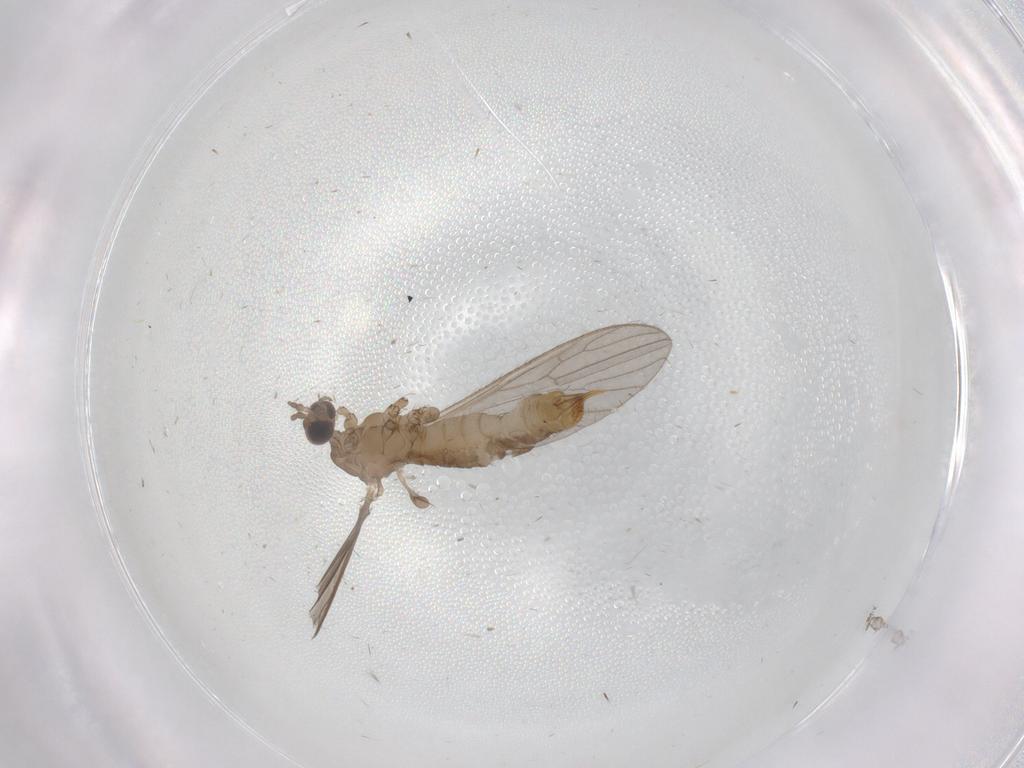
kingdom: Animalia
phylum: Arthropoda
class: Insecta
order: Diptera
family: Limoniidae
